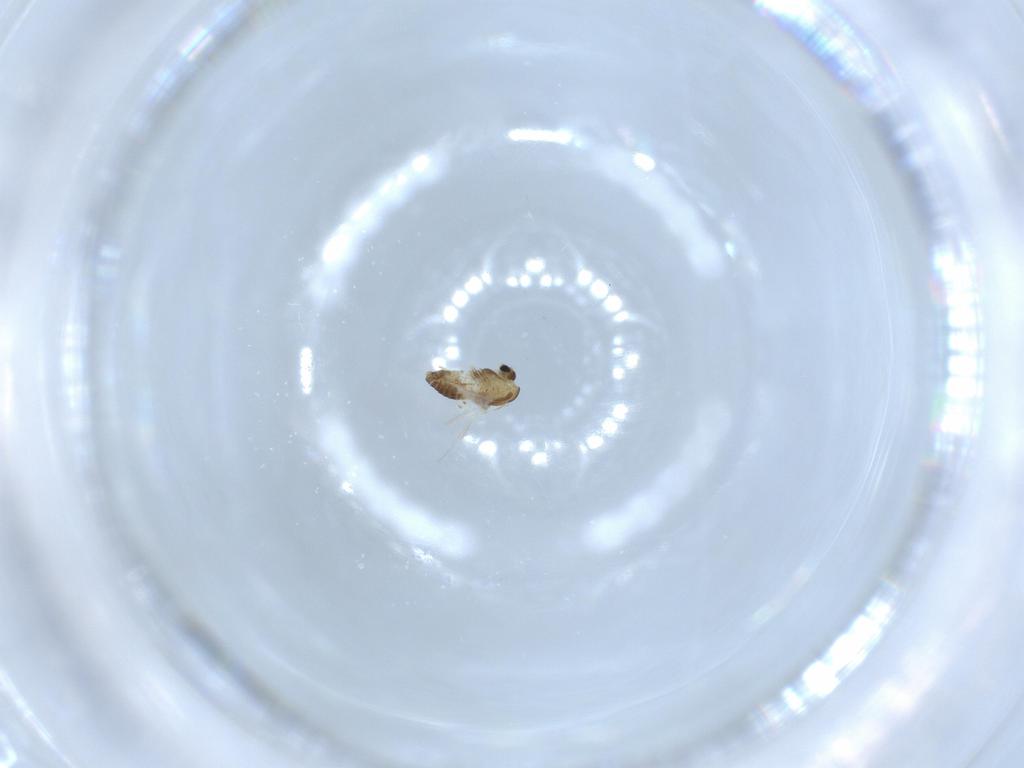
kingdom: Animalia
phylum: Arthropoda
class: Insecta
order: Diptera
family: Chironomidae
